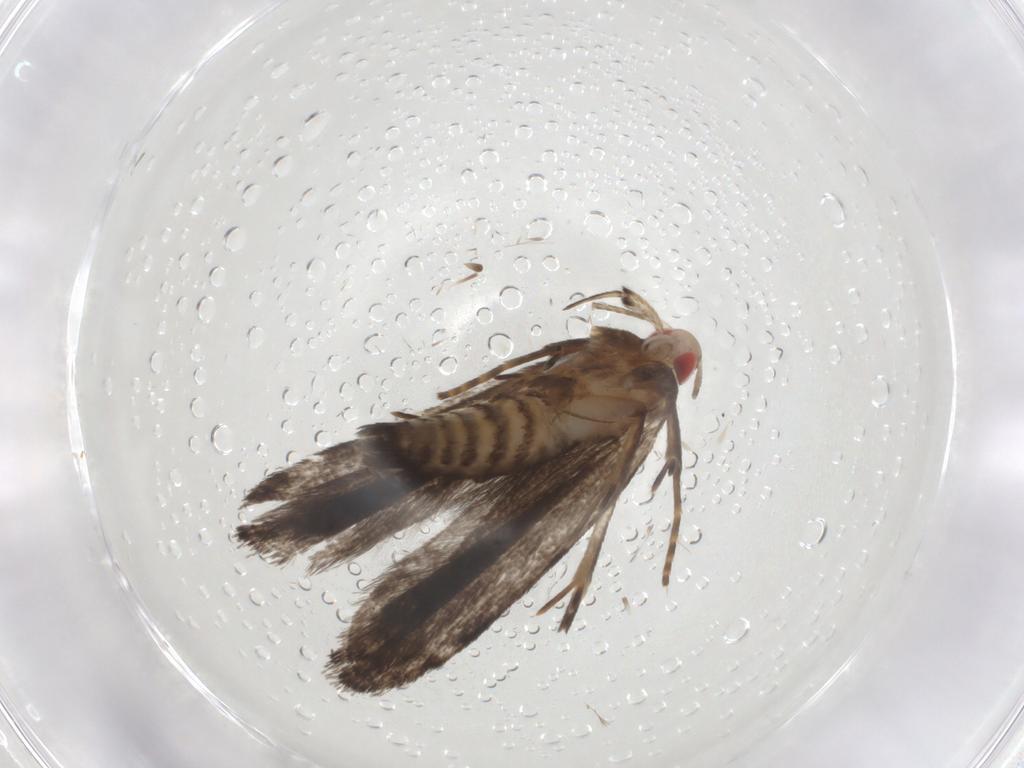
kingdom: Animalia
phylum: Arthropoda
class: Insecta
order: Lepidoptera
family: Gelechiidae
